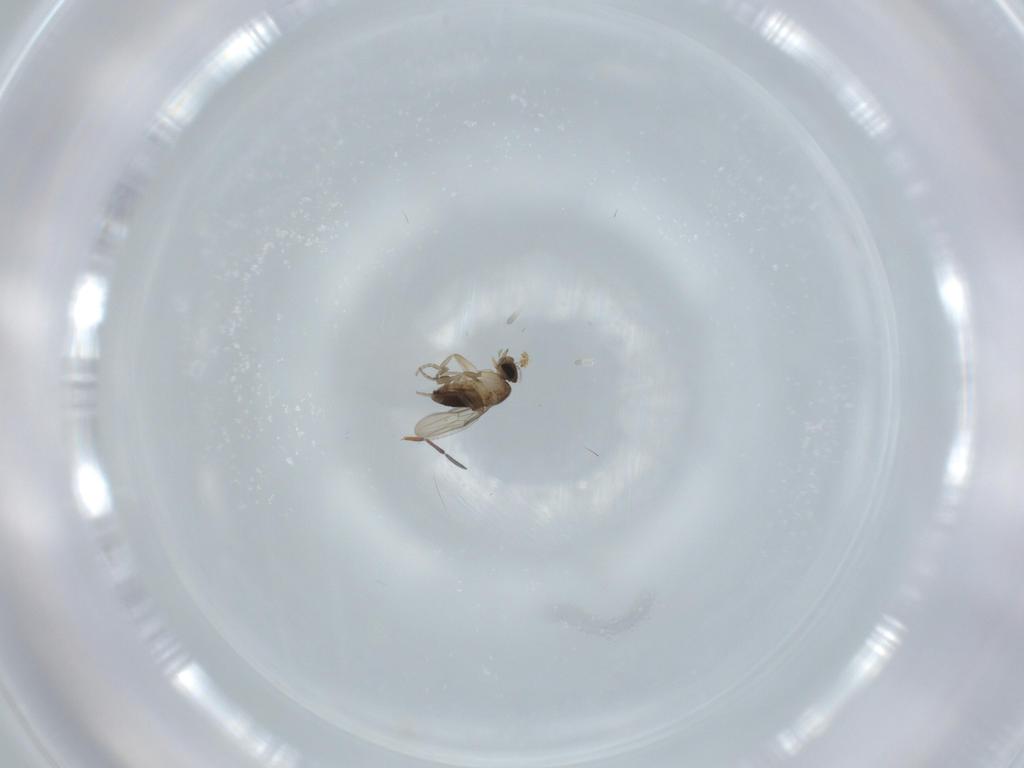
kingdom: Animalia
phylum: Arthropoda
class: Insecta
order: Diptera
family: Phoridae
